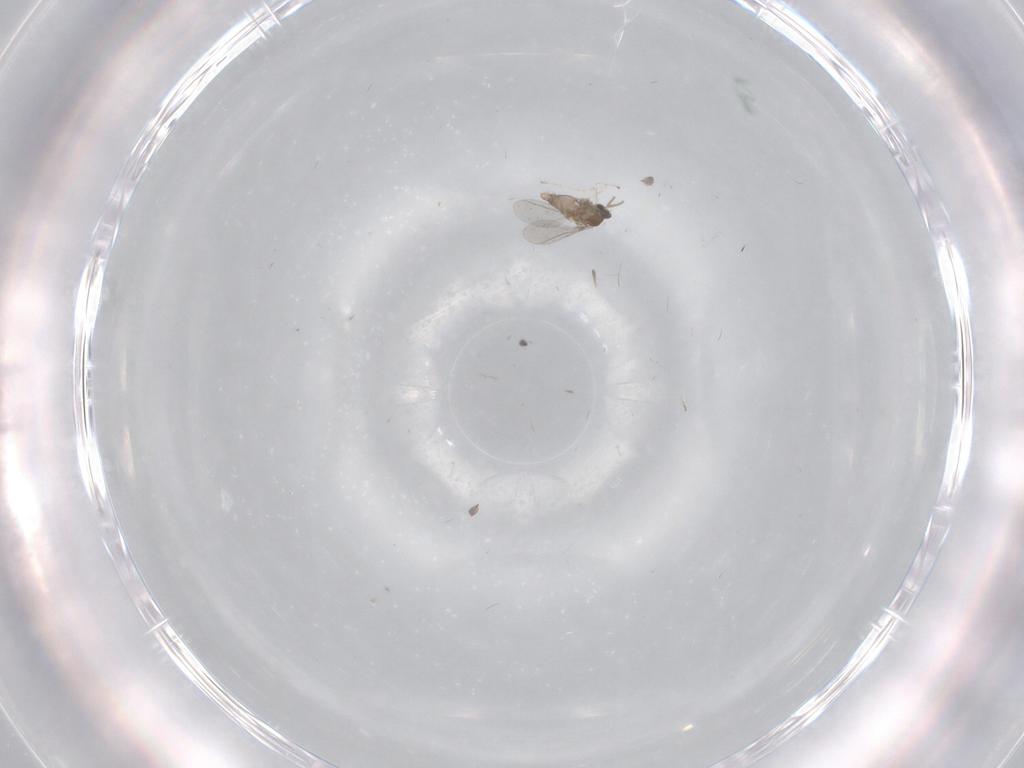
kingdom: Animalia
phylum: Arthropoda
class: Insecta
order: Diptera
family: Cecidomyiidae
